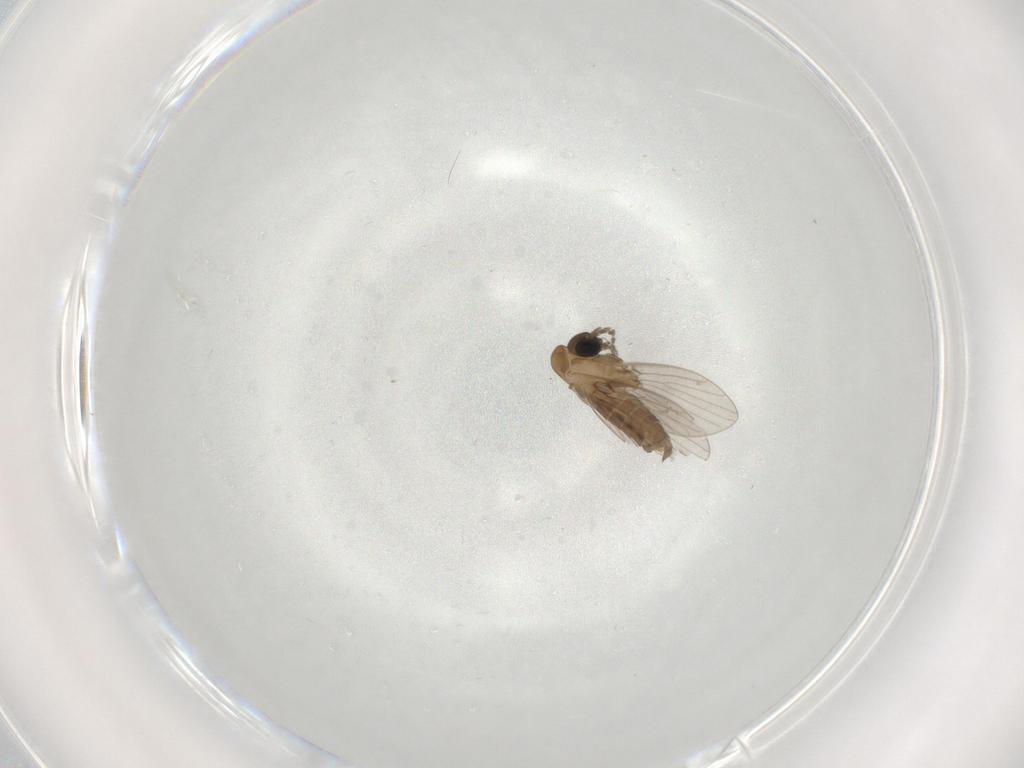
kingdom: Animalia
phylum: Arthropoda
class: Insecta
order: Diptera
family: Psychodidae
